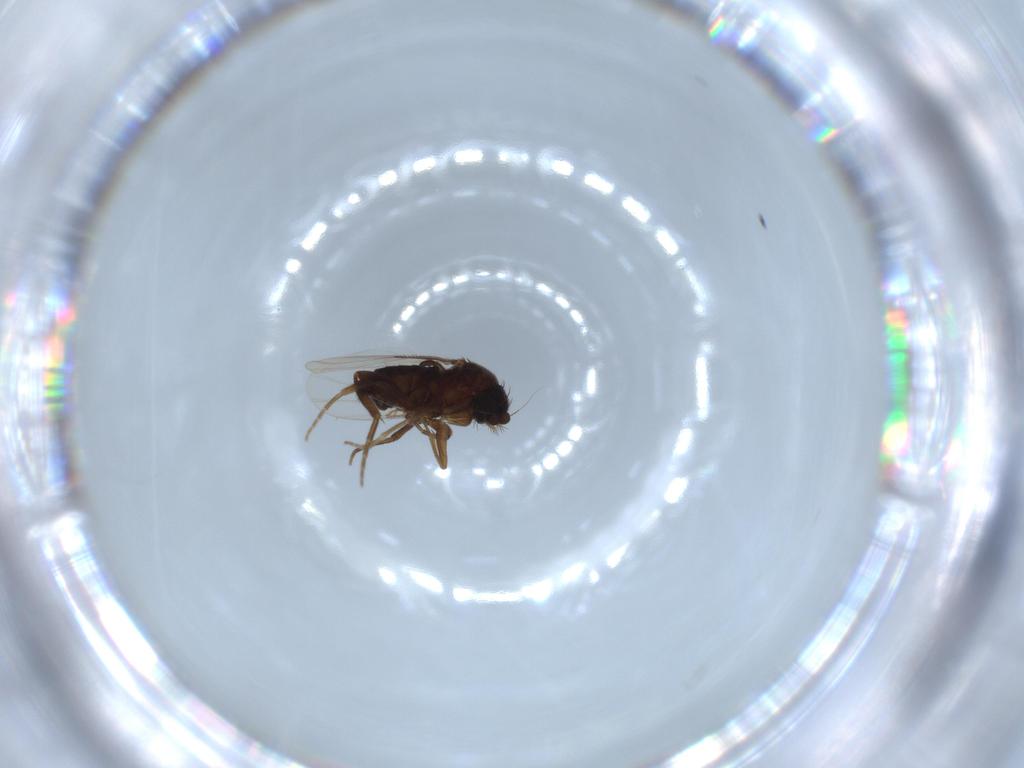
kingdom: Animalia
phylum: Arthropoda
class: Insecta
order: Diptera
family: Phoridae
